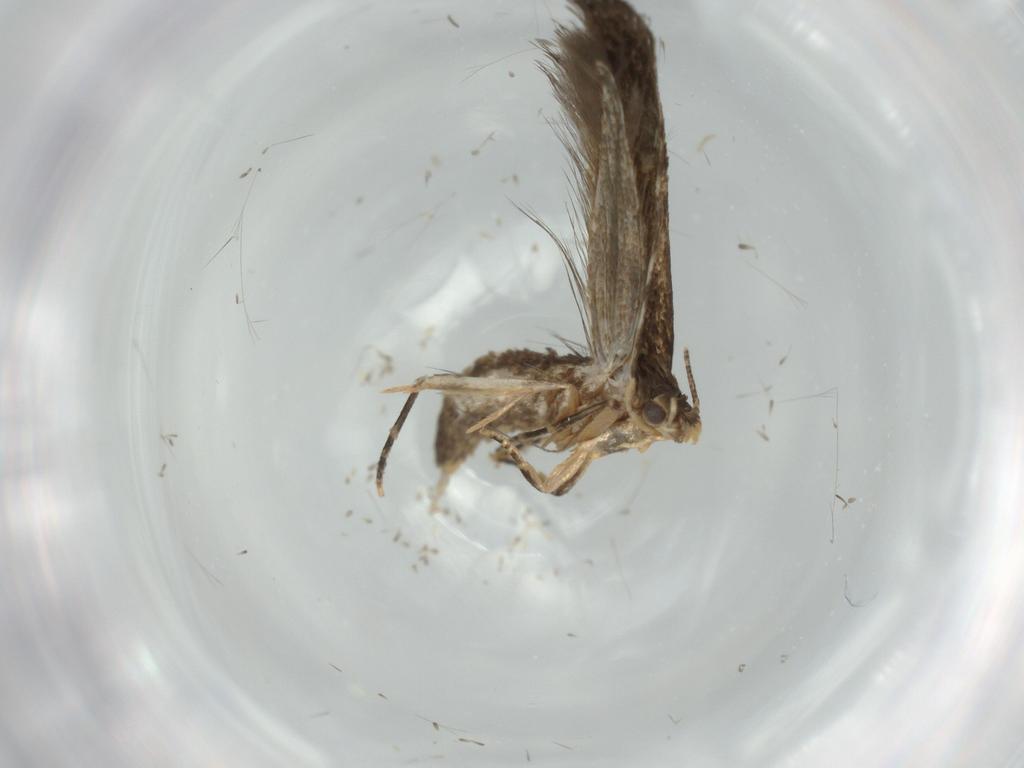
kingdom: Animalia
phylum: Arthropoda
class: Insecta
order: Lepidoptera
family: Tineidae
